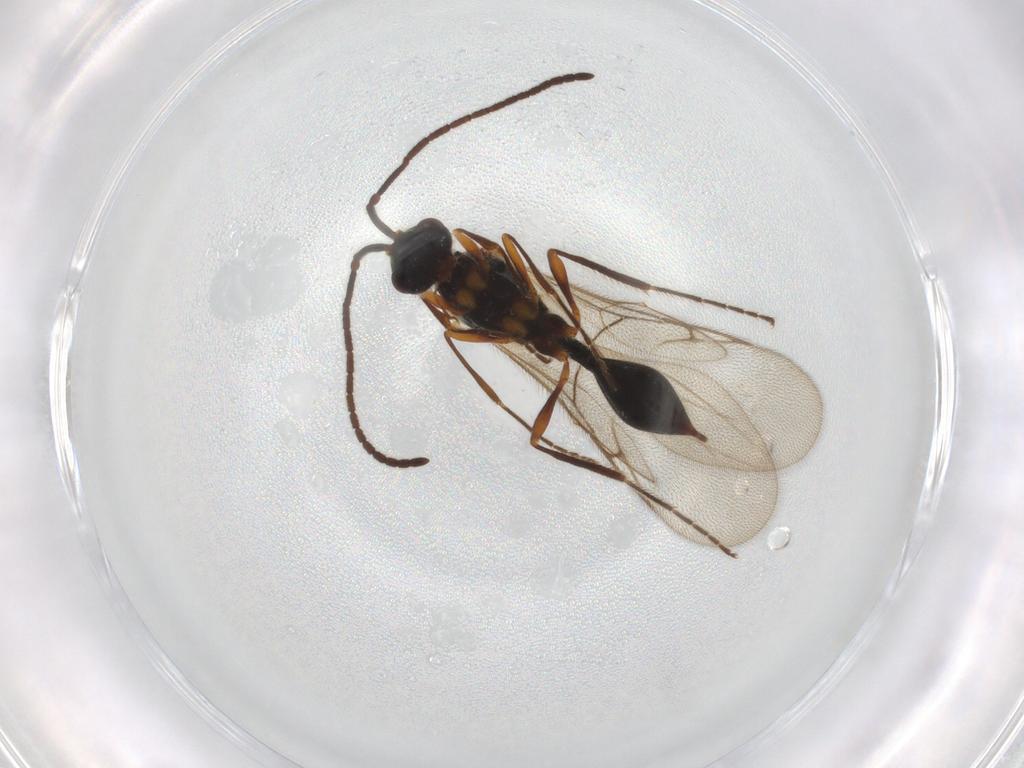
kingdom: Animalia
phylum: Arthropoda
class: Insecta
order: Hymenoptera
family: Diapriidae
